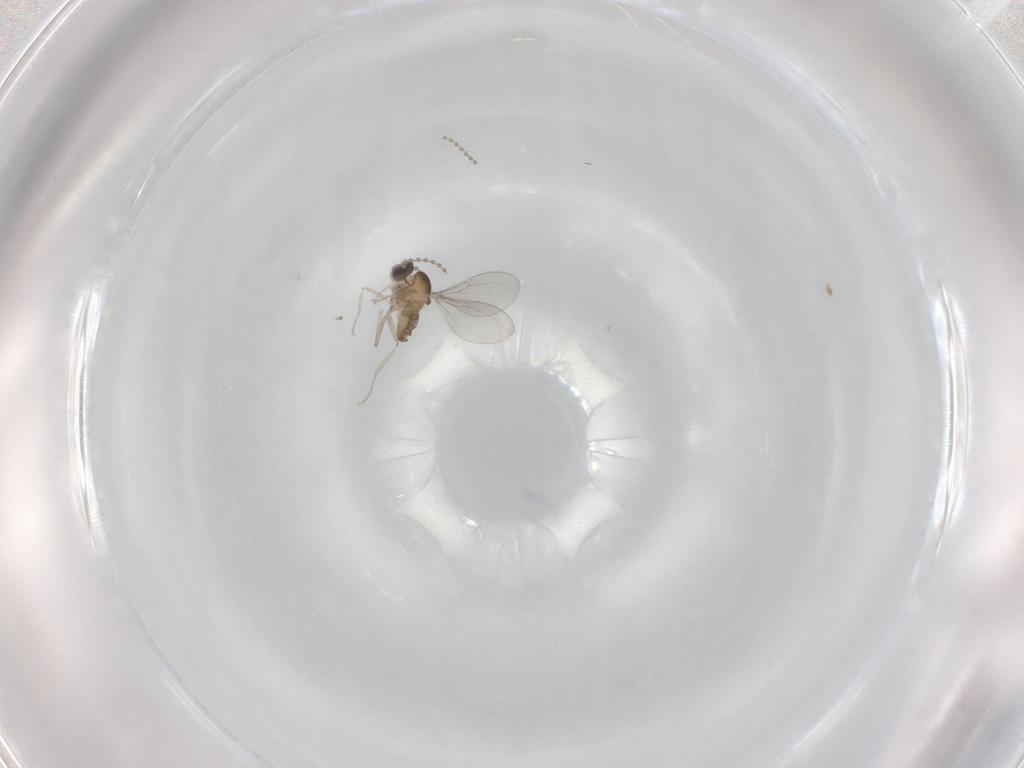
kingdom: Animalia
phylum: Arthropoda
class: Insecta
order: Diptera
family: Cecidomyiidae
